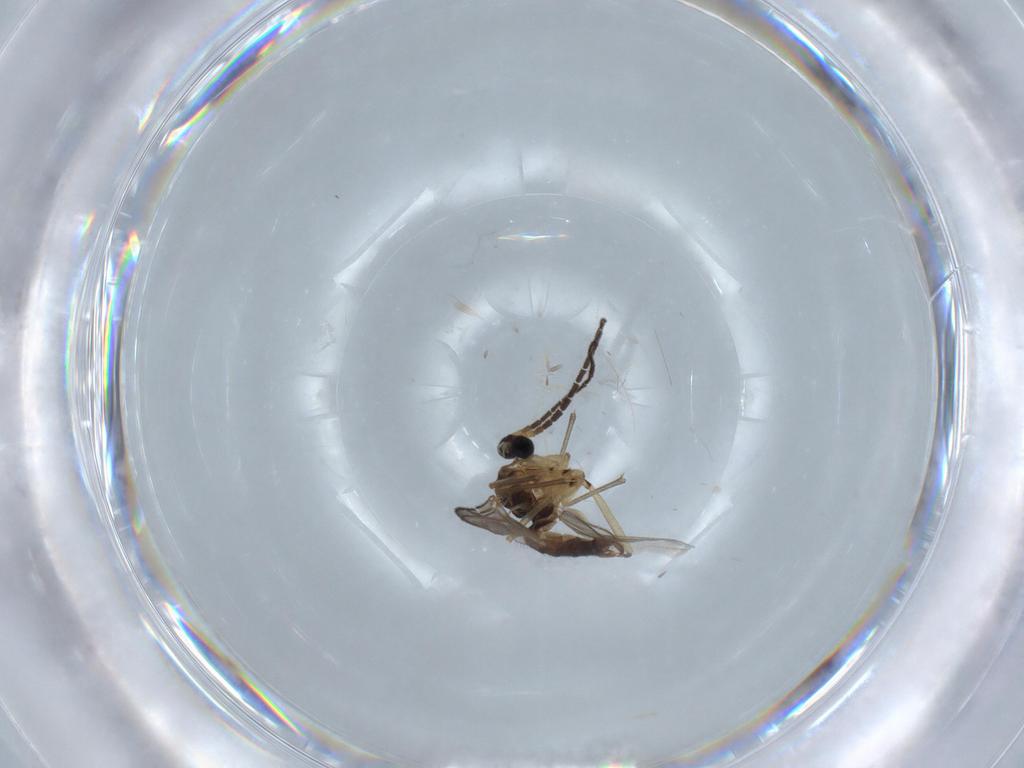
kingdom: Animalia
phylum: Arthropoda
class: Insecta
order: Diptera
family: Sciaridae
